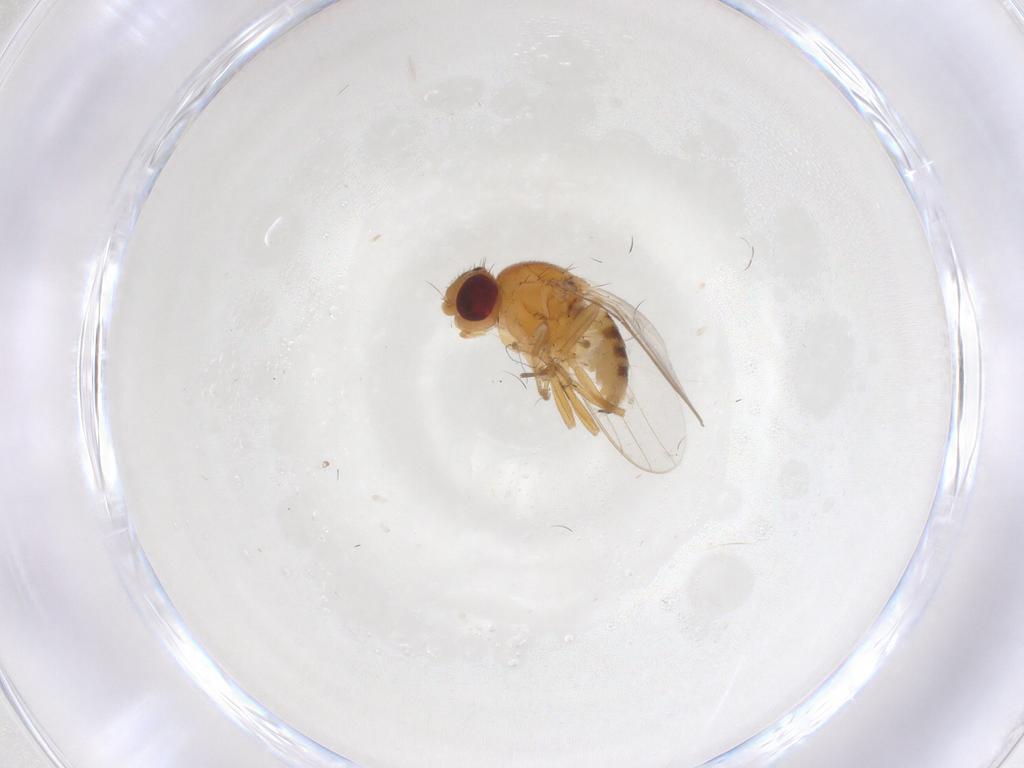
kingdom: Animalia
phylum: Arthropoda
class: Insecta
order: Diptera
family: Chloropidae
